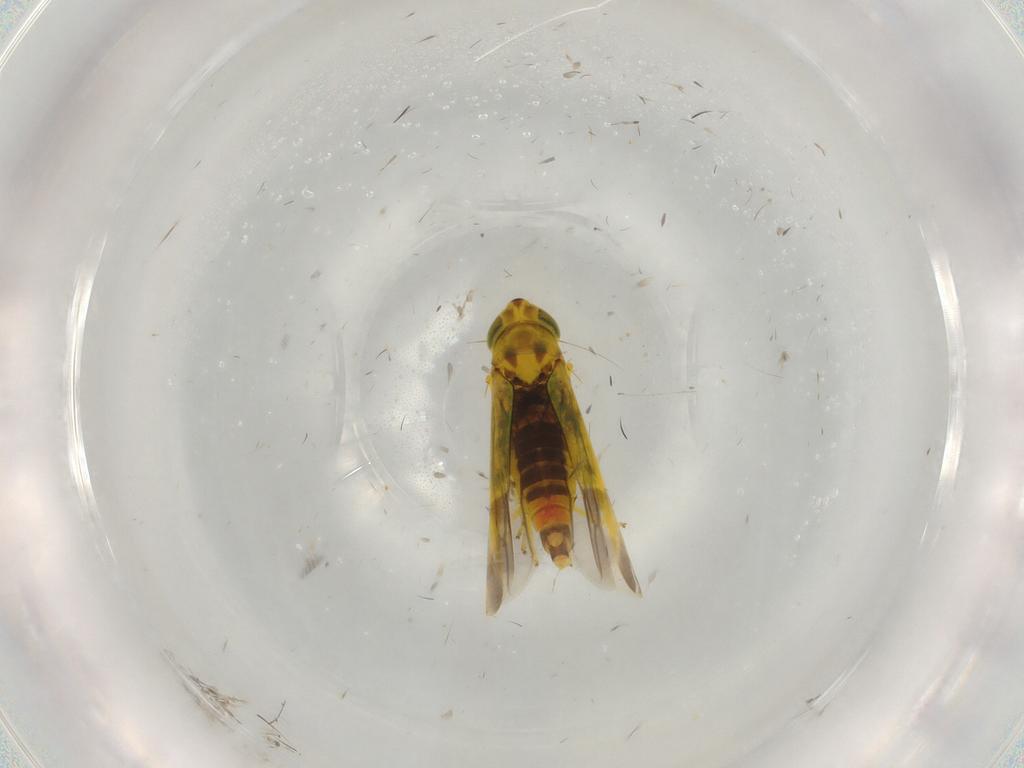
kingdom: Animalia
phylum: Arthropoda
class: Insecta
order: Hemiptera
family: Cicadellidae
